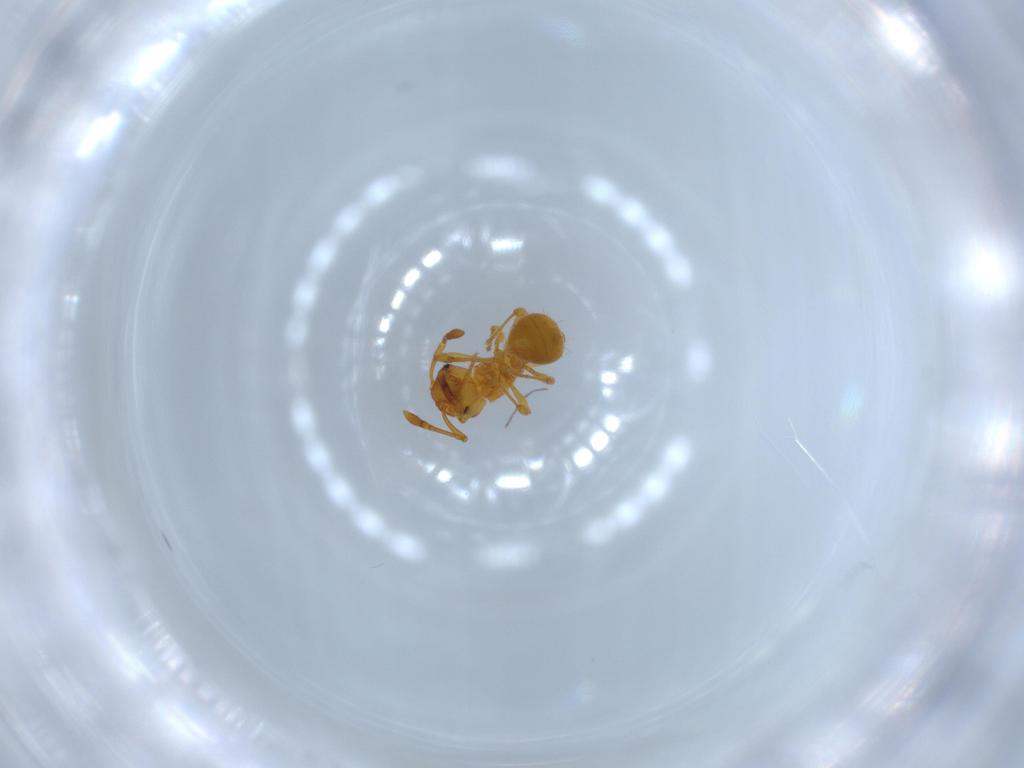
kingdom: Animalia
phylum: Arthropoda
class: Insecta
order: Hymenoptera
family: Formicidae
